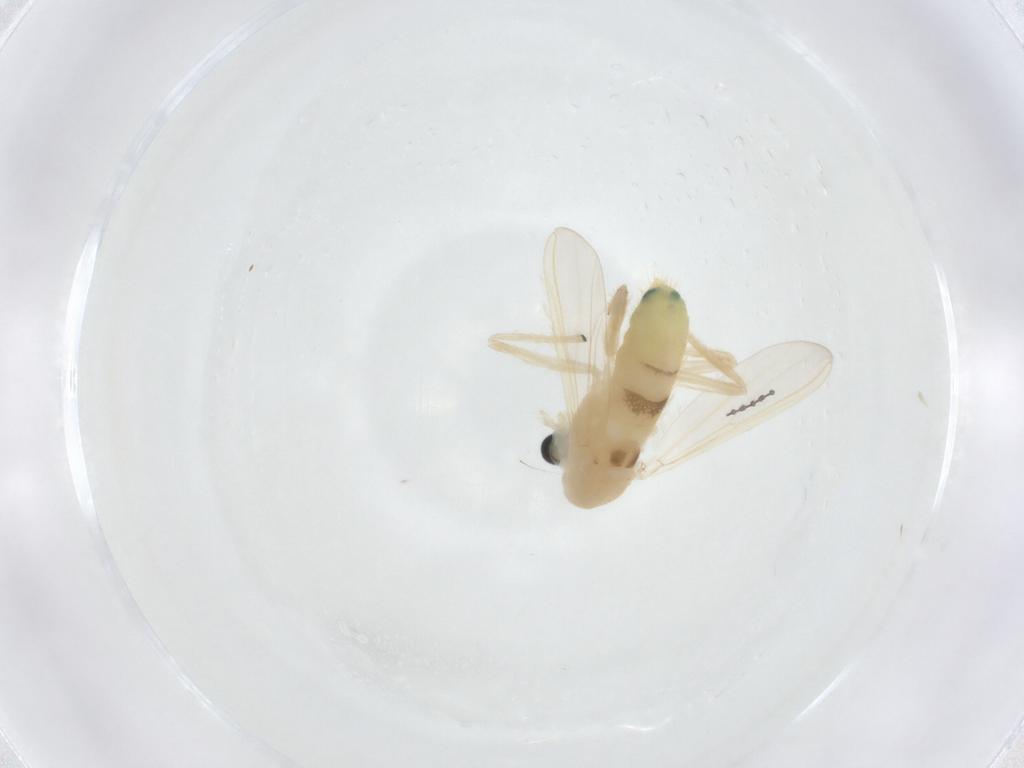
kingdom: Animalia
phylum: Arthropoda
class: Insecta
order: Diptera
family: Chironomidae
